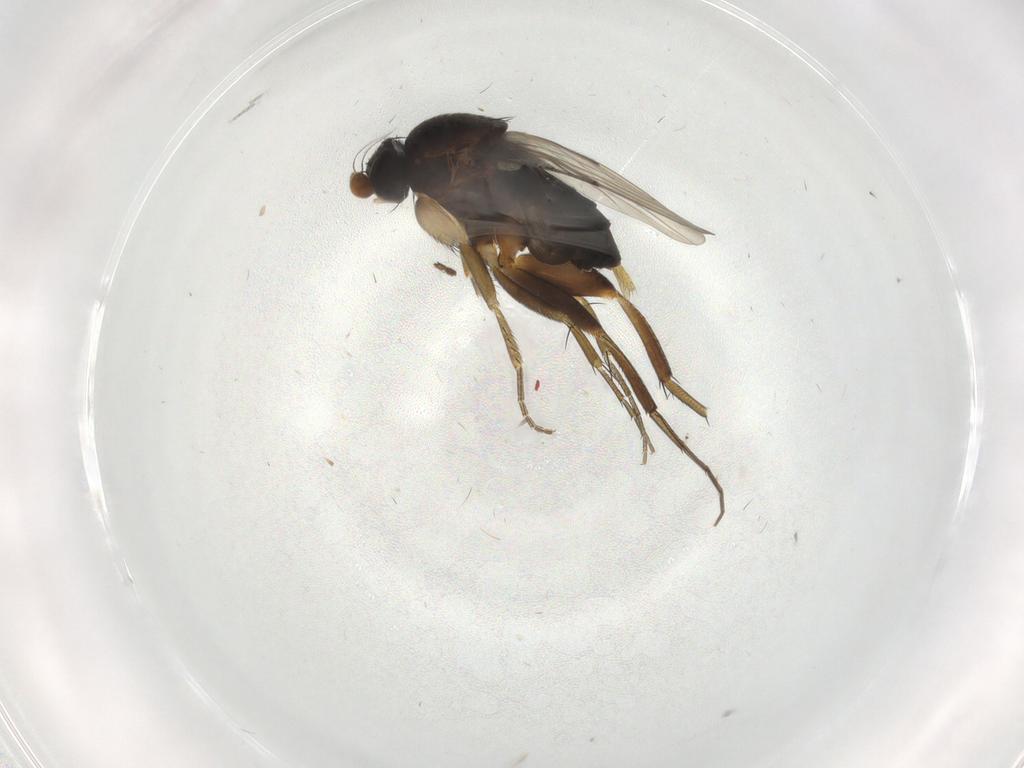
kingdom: Animalia
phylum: Arthropoda
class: Insecta
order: Diptera
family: Phoridae
